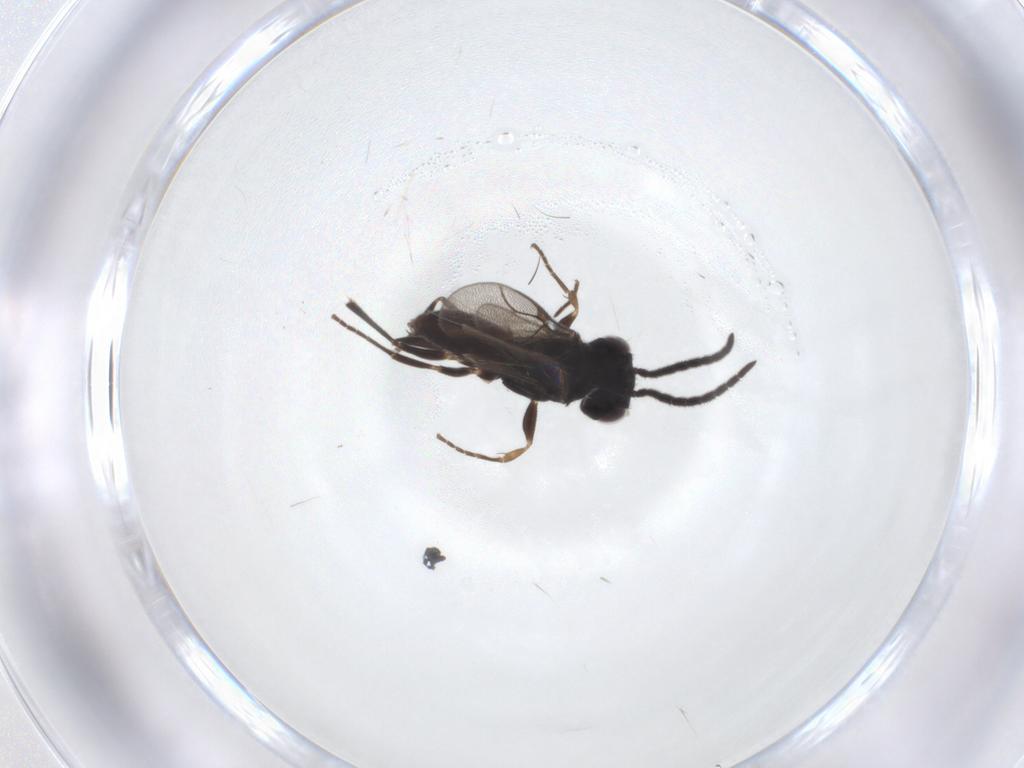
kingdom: Animalia
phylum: Arthropoda
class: Insecta
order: Hymenoptera
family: Dryinidae
